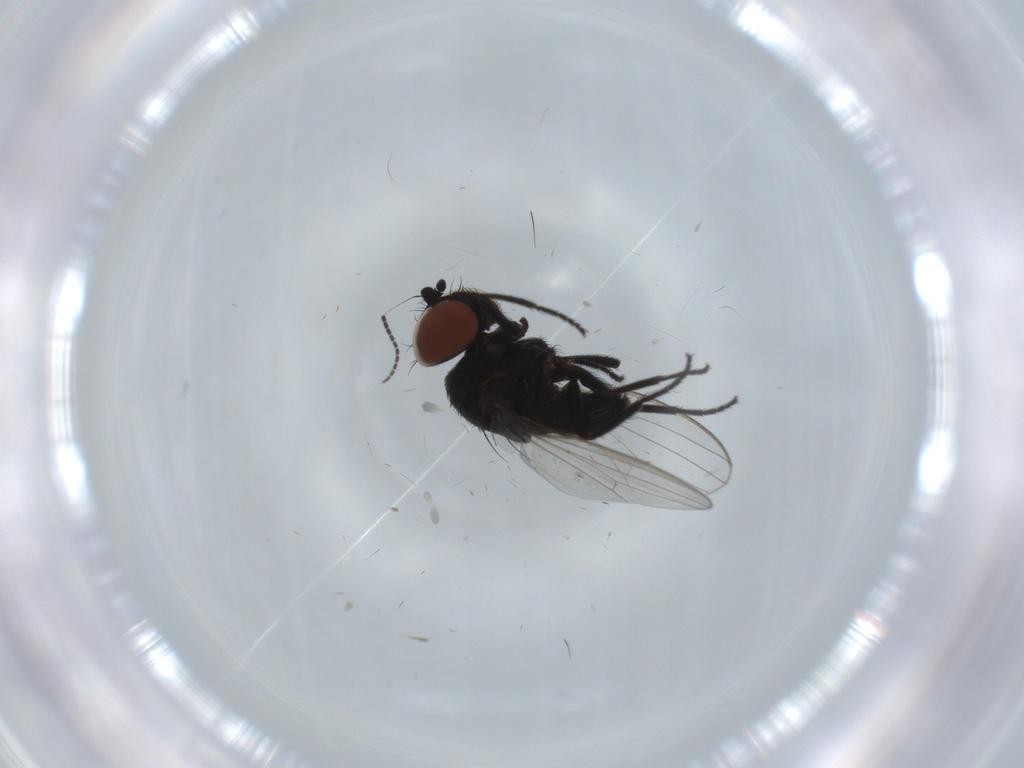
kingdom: Animalia
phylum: Arthropoda
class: Insecta
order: Diptera
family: Sciaridae
